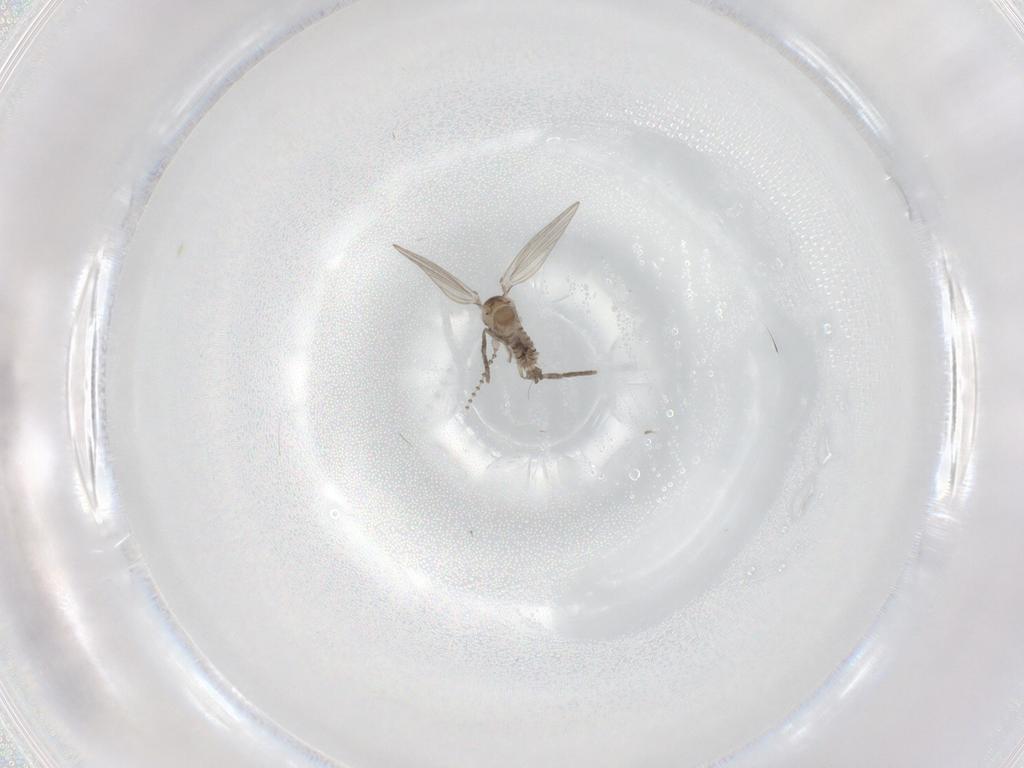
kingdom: Animalia
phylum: Arthropoda
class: Insecta
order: Diptera
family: Psychodidae
